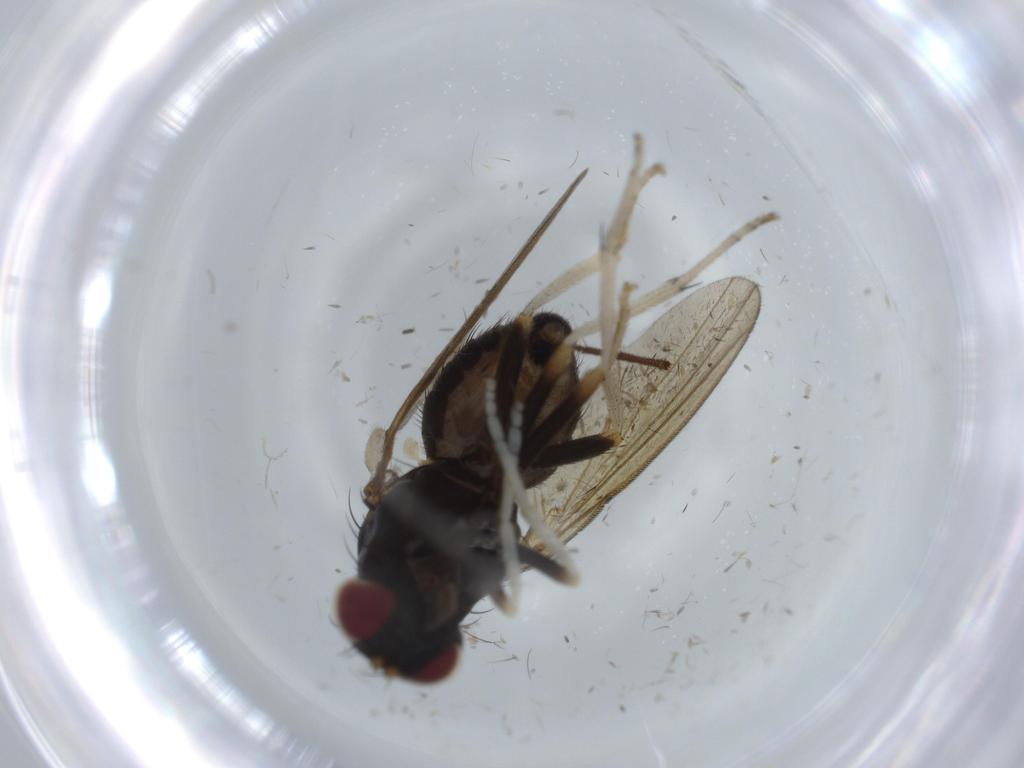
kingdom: Animalia
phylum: Arthropoda
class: Insecta
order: Diptera
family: Dolichopodidae
